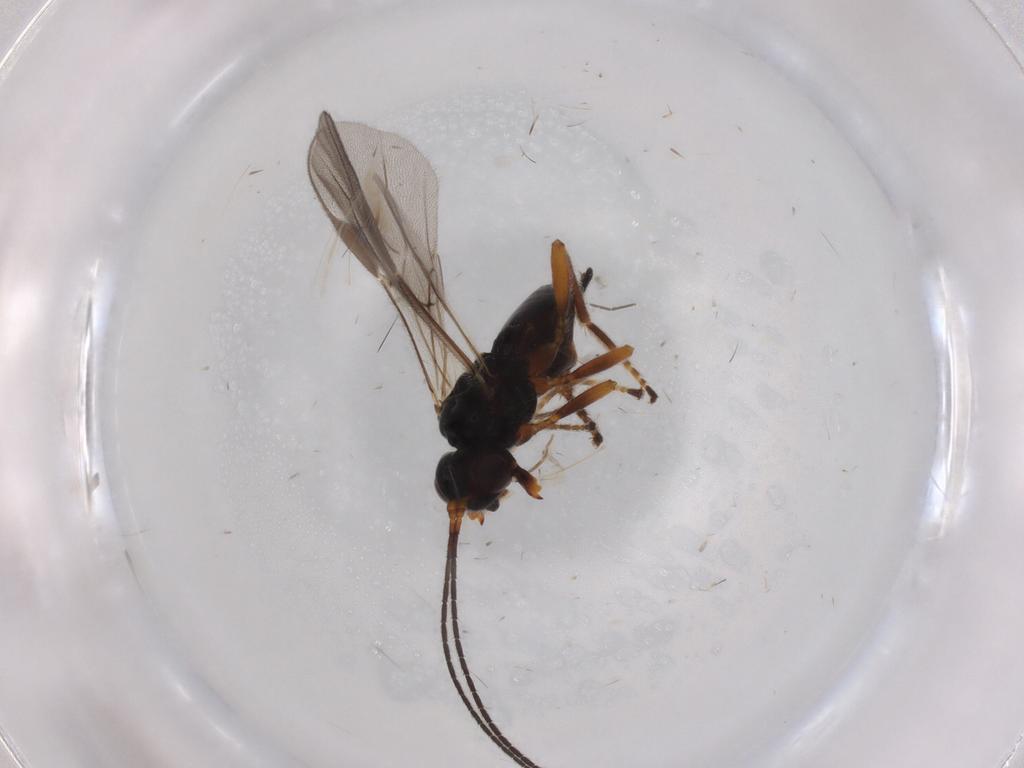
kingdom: Animalia
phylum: Arthropoda
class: Insecta
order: Hymenoptera
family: Braconidae
